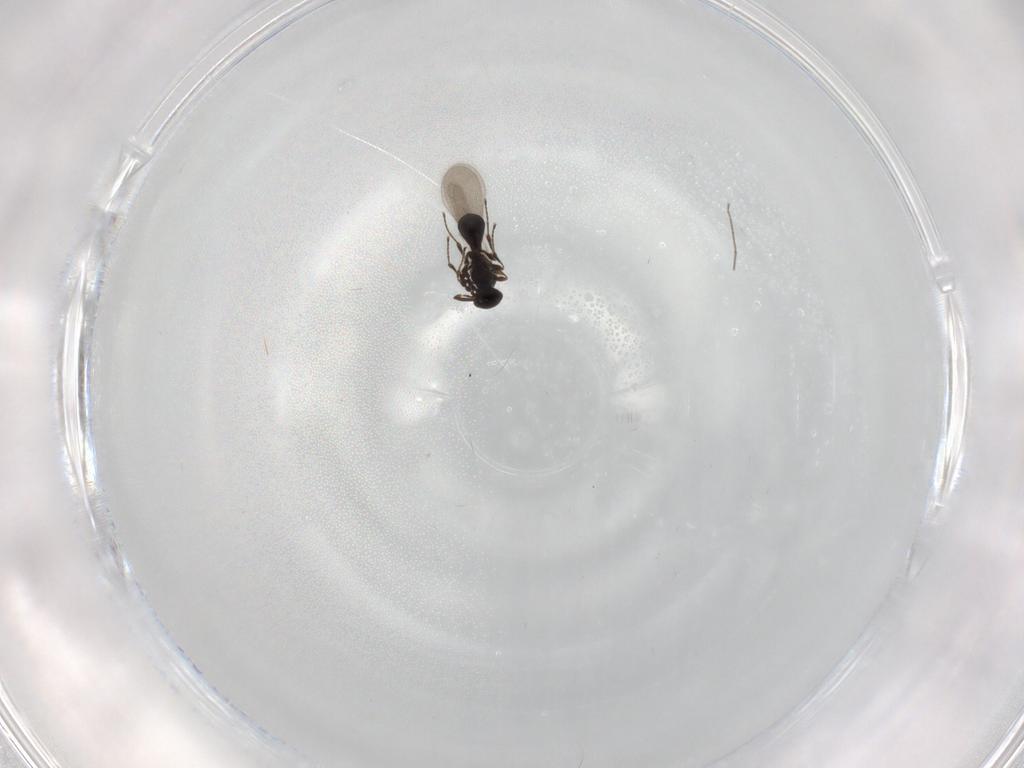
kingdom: Animalia
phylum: Arthropoda
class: Insecta
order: Hymenoptera
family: Platygastridae
